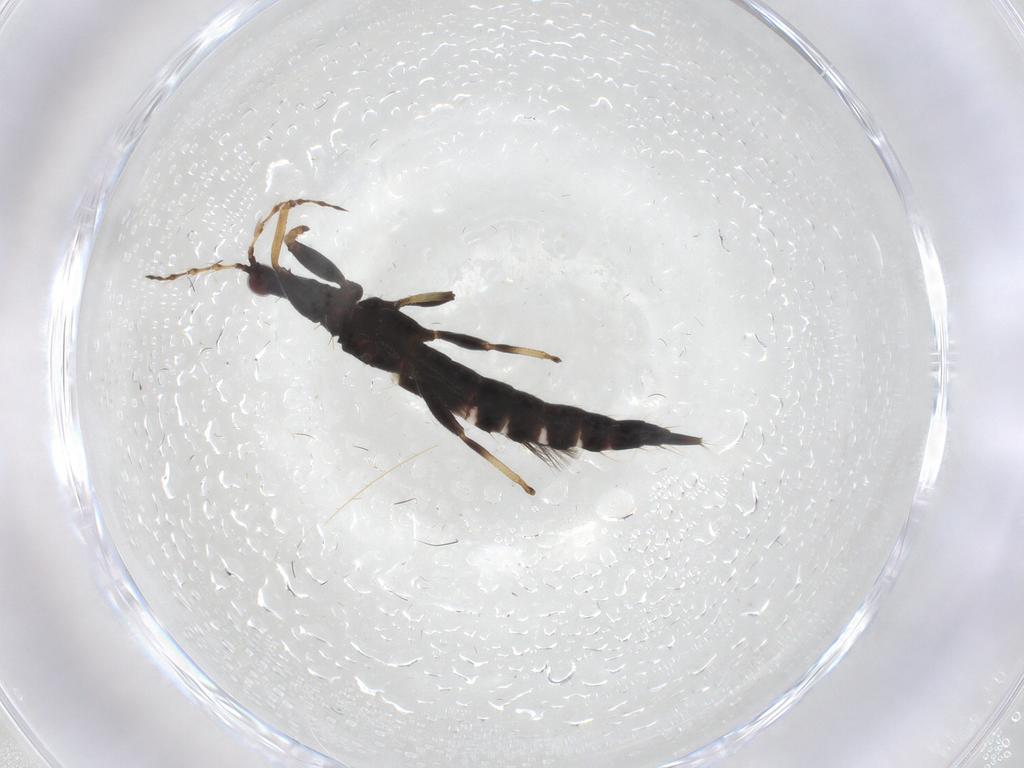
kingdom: Animalia
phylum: Arthropoda
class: Insecta
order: Thysanoptera
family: Phlaeothripidae
